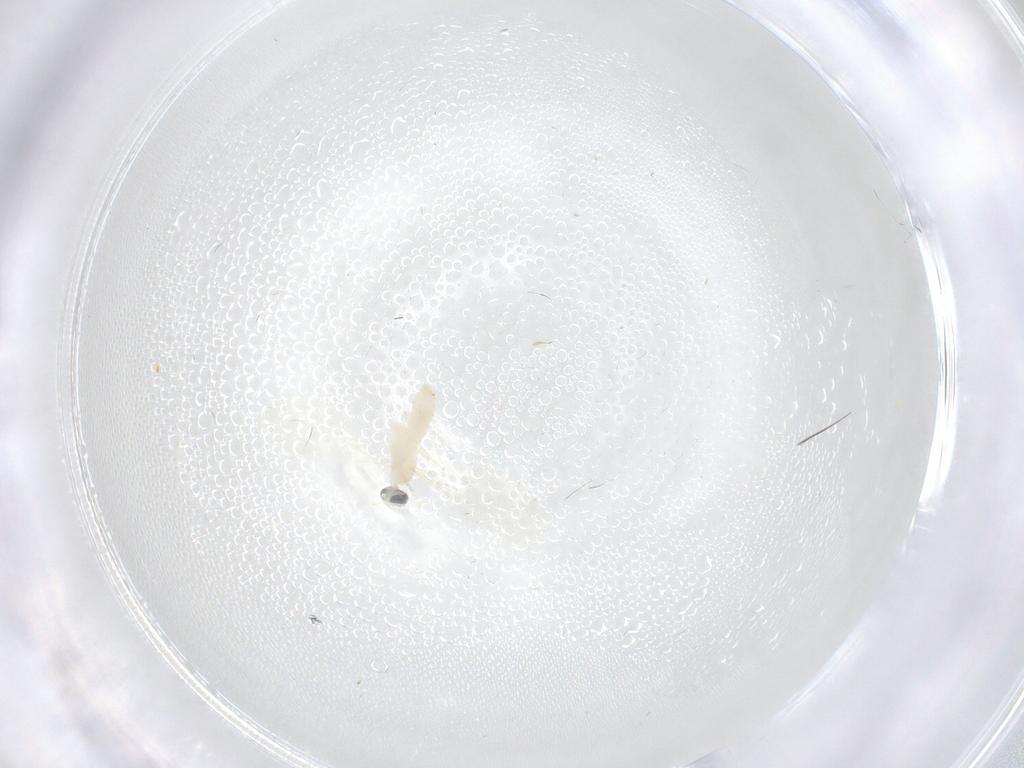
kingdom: Animalia
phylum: Arthropoda
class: Insecta
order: Diptera
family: Cecidomyiidae
